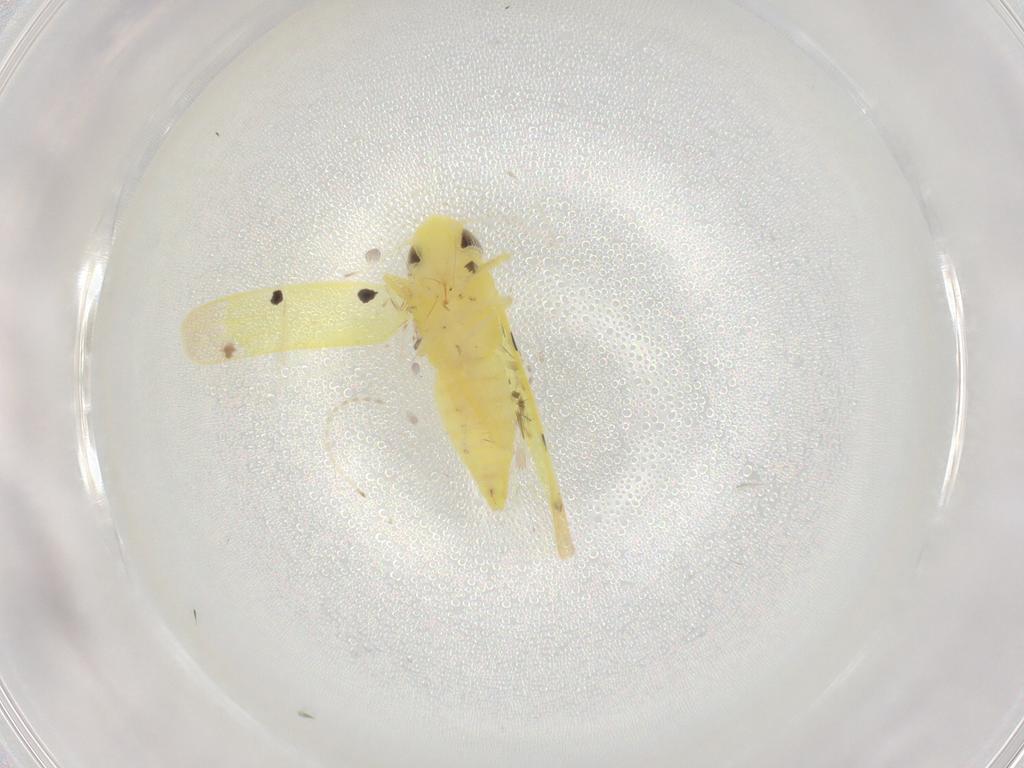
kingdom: Animalia
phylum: Arthropoda
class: Insecta
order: Hemiptera
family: Cicadellidae
